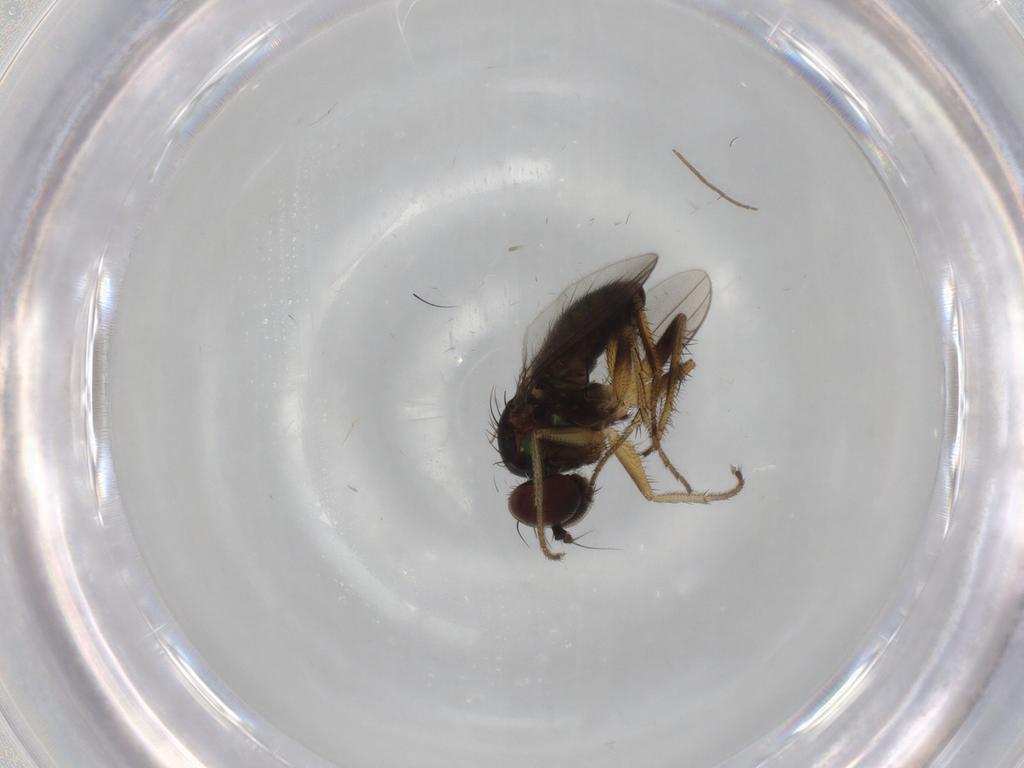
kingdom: Animalia
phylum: Arthropoda
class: Insecta
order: Diptera
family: Dolichopodidae
